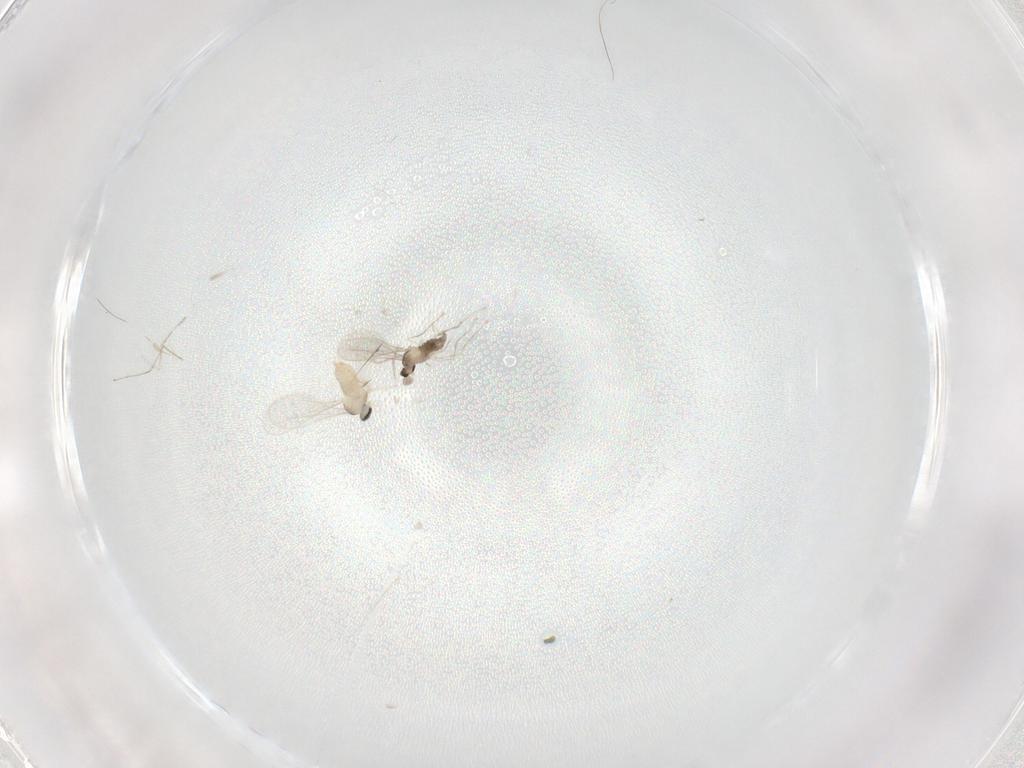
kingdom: Animalia
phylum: Arthropoda
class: Insecta
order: Diptera
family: Cecidomyiidae
